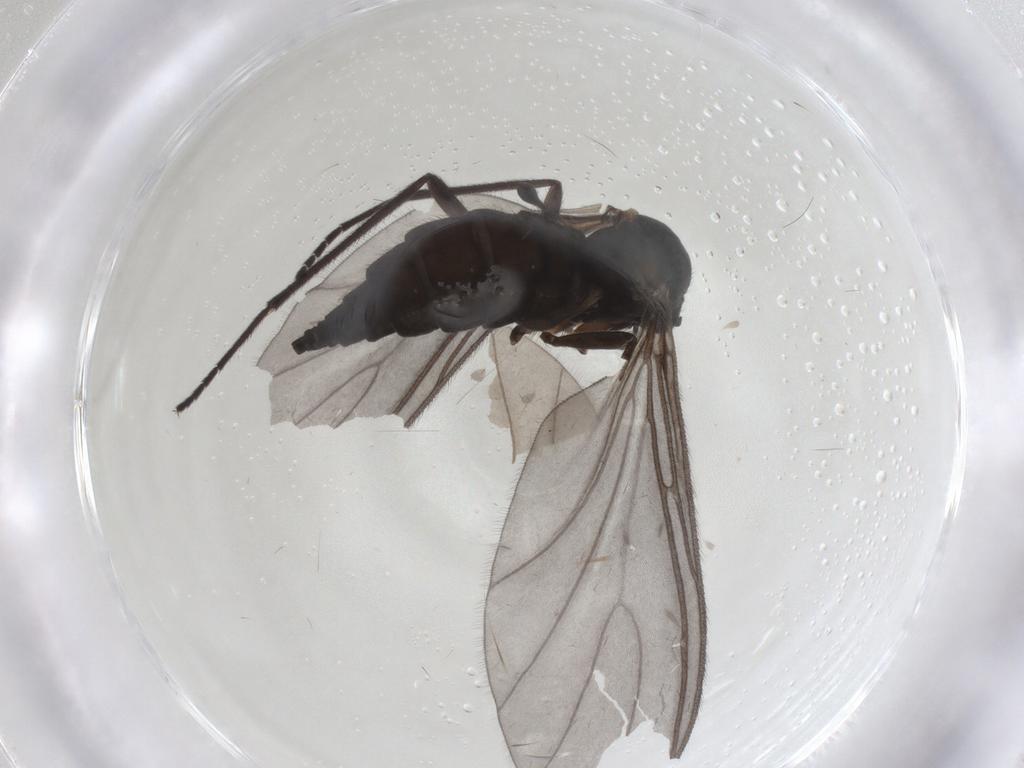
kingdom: Animalia
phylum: Arthropoda
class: Insecta
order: Diptera
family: Sciaridae
